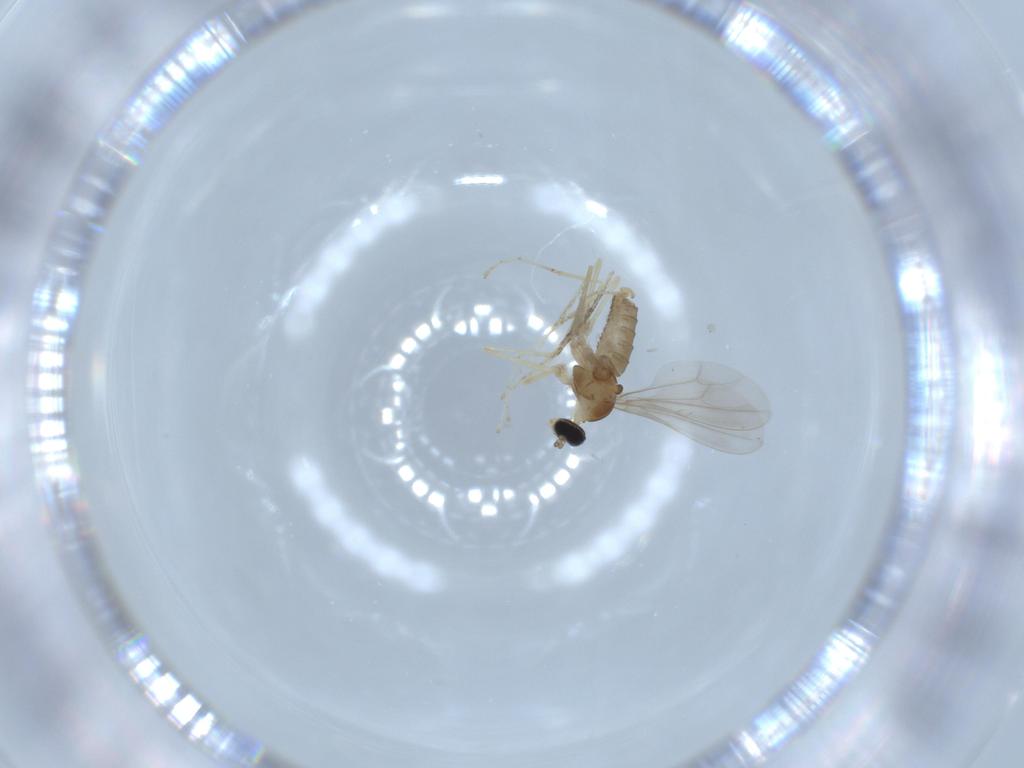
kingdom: Animalia
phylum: Arthropoda
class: Insecta
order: Diptera
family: Cecidomyiidae
